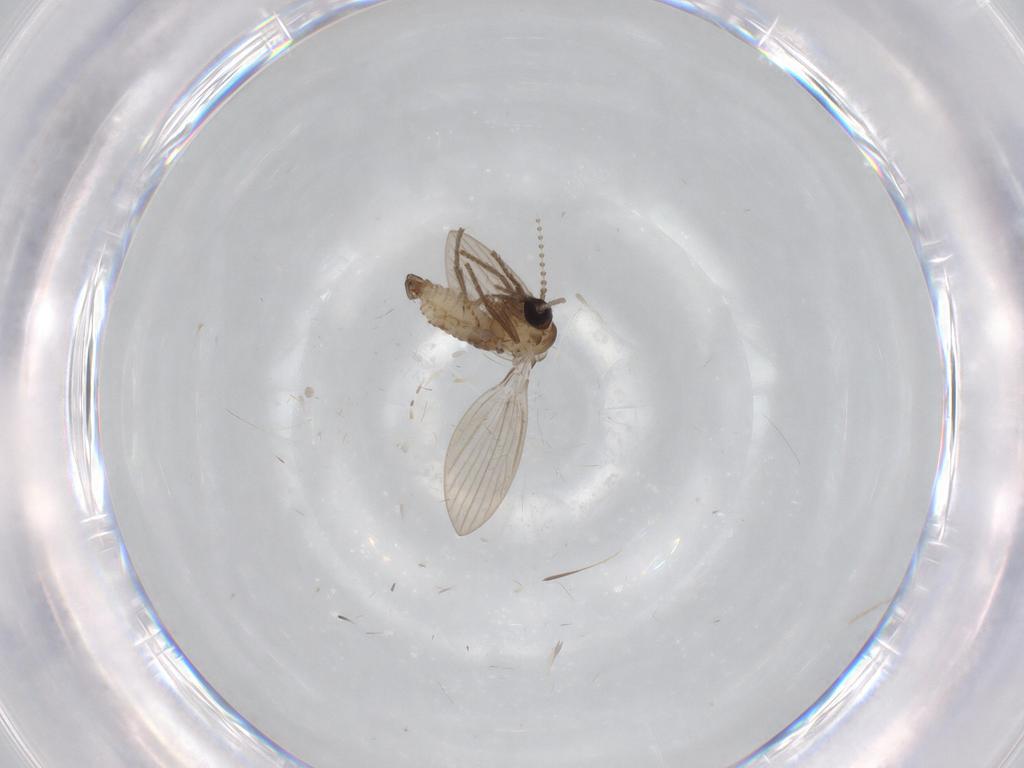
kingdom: Animalia
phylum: Arthropoda
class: Insecta
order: Diptera
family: Psychodidae
